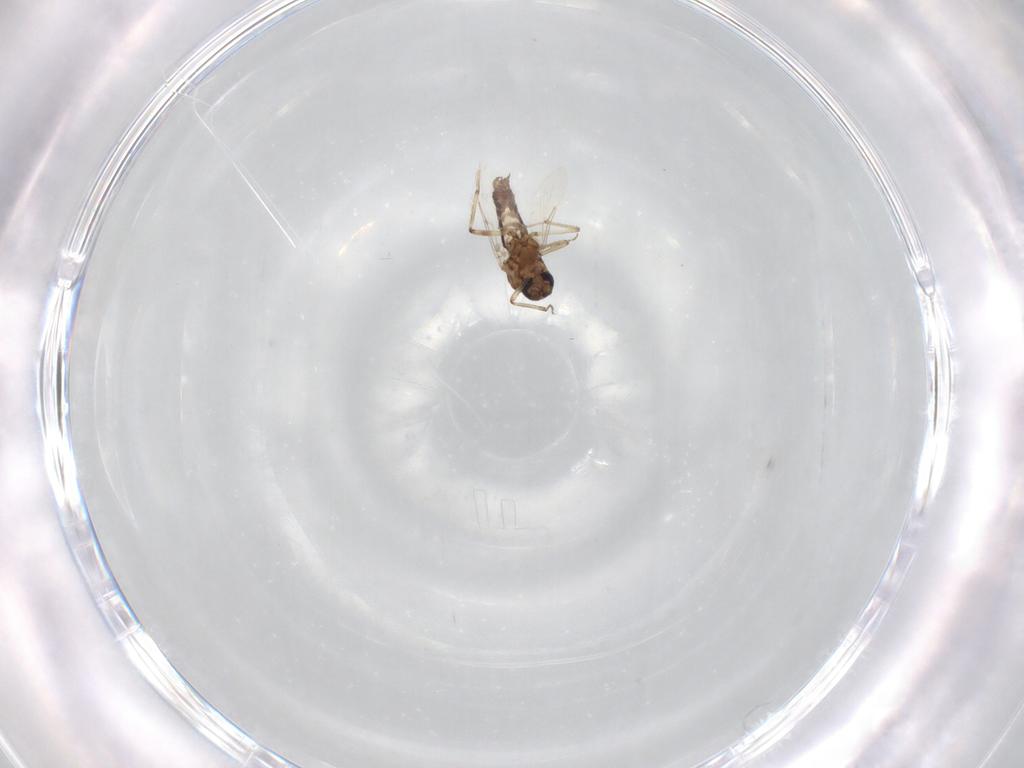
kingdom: Animalia
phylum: Arthropoda
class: Insecta
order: Diptera
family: Ceratopogonidae
